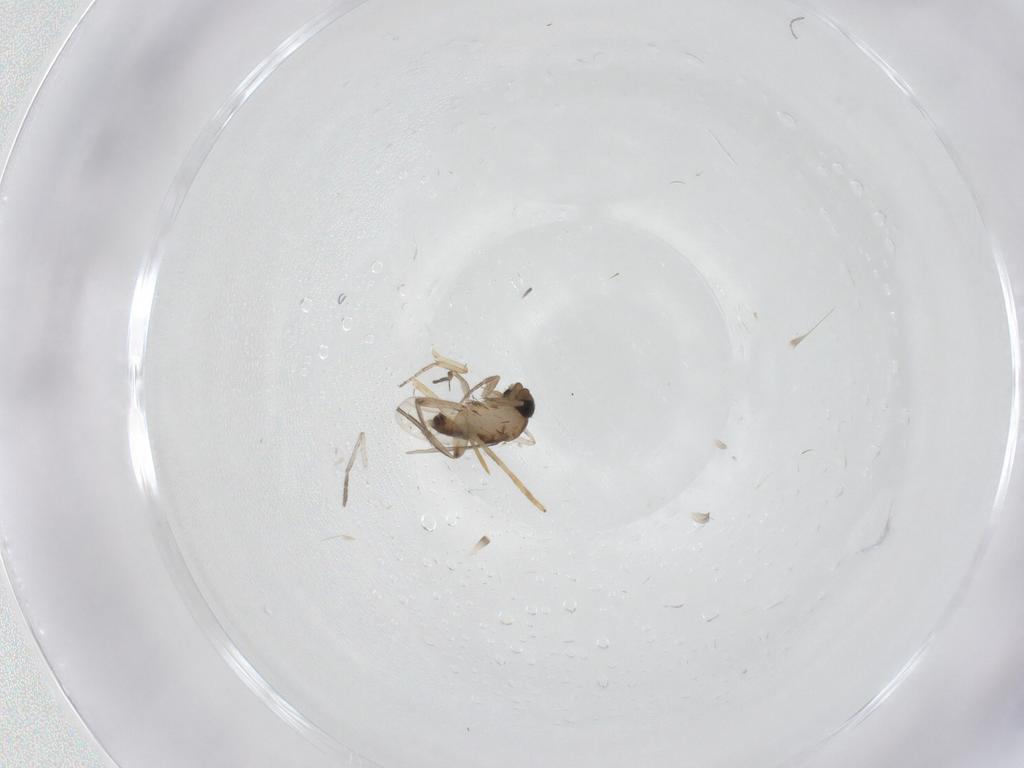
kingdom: Animalia
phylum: Arthropoda
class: Insecta
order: Diptera
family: Phoridae
